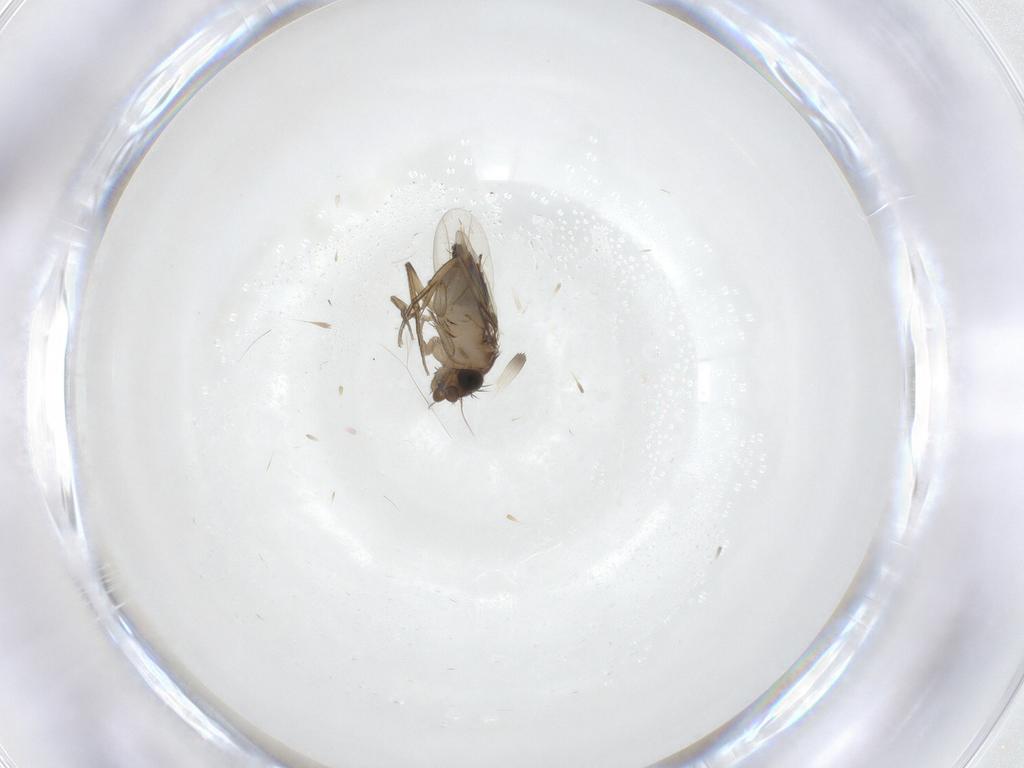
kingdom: Animalia
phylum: Arthropoda
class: Insecta
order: Diptera
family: Phoridae
